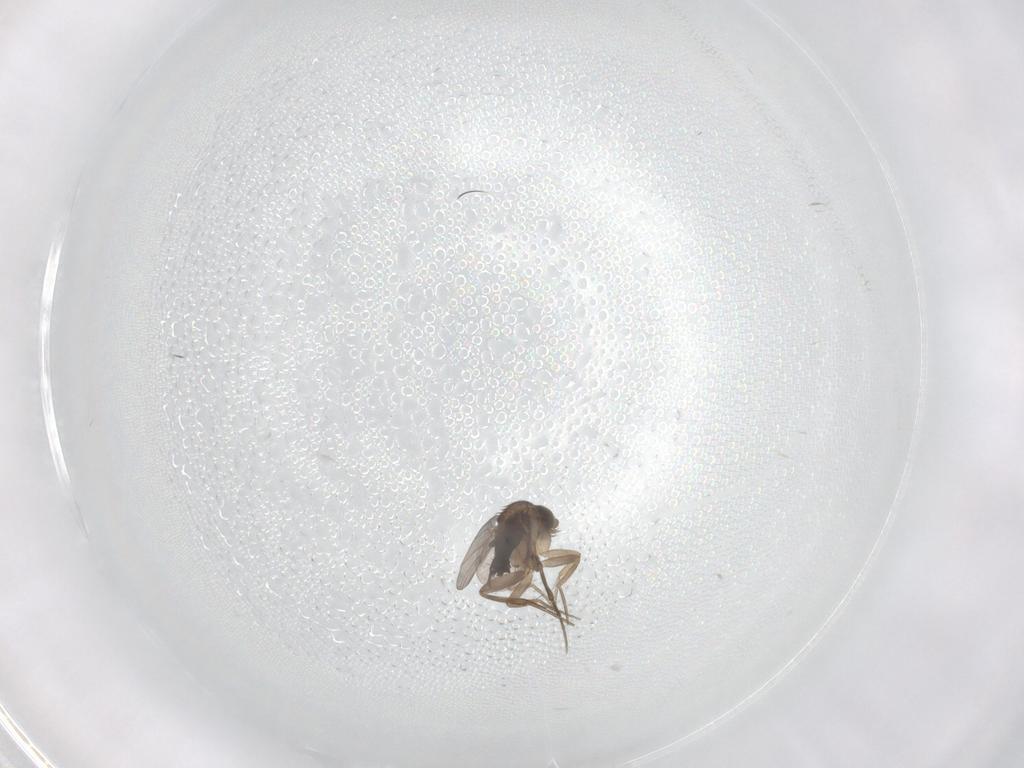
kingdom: Animalia
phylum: Arthropoda
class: Insecta
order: Diptera
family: Phoridae
